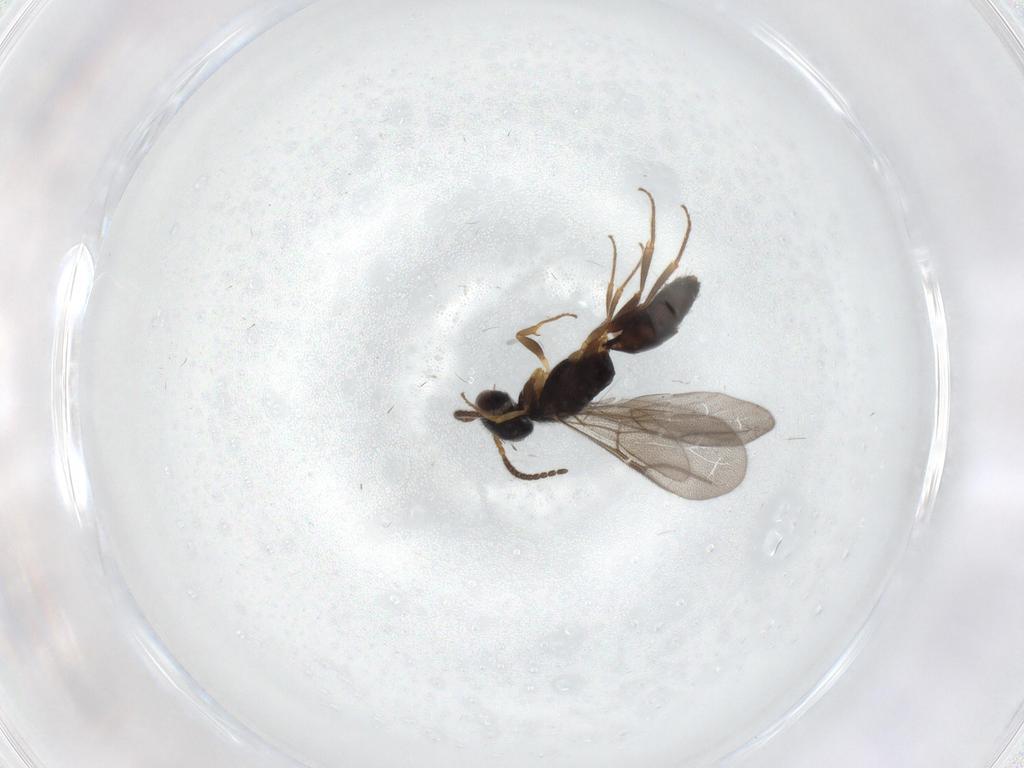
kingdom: Animalia
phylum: Arthropoda
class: Insecta
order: Hymenoptera
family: Bethylidae
